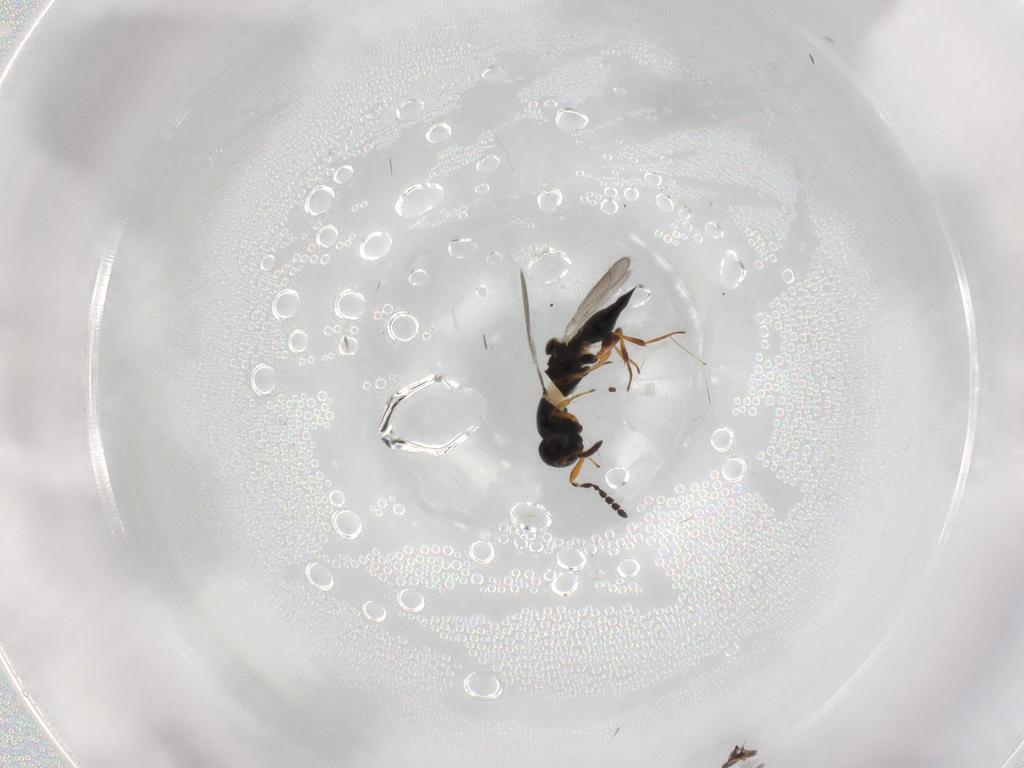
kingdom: Animalia
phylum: Arthropoda
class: Insecta
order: Hymenoptera
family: Platygastridae
